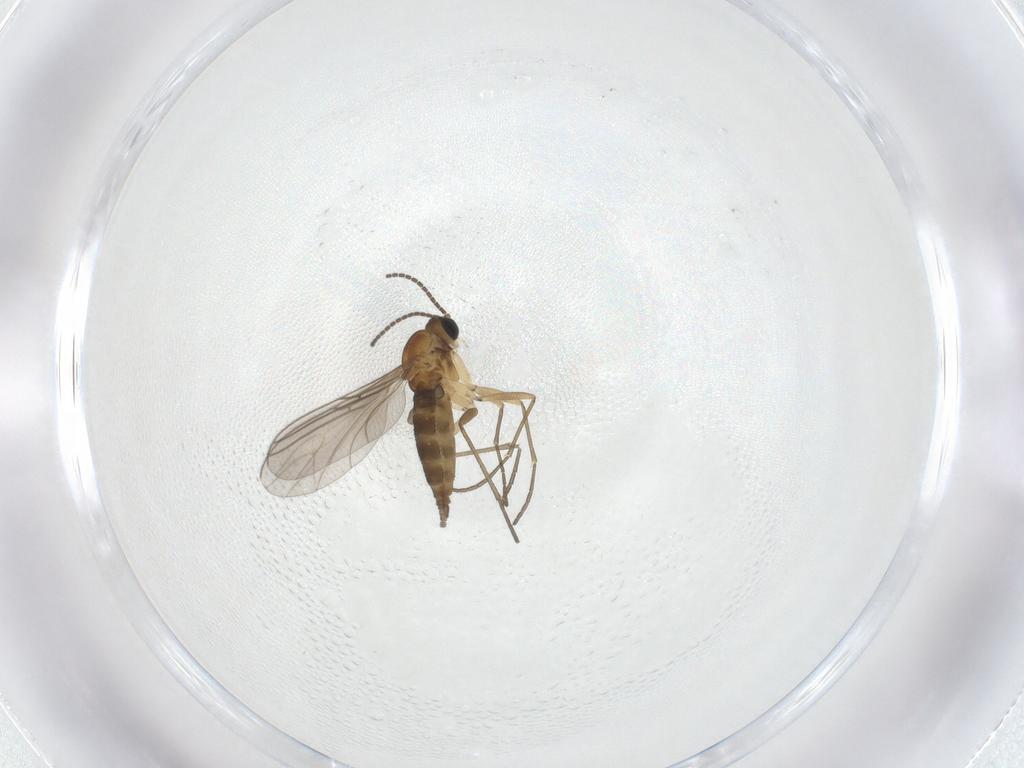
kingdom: Animalia
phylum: Arthropoda
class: Insecta
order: Diptera
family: Sciaridae
